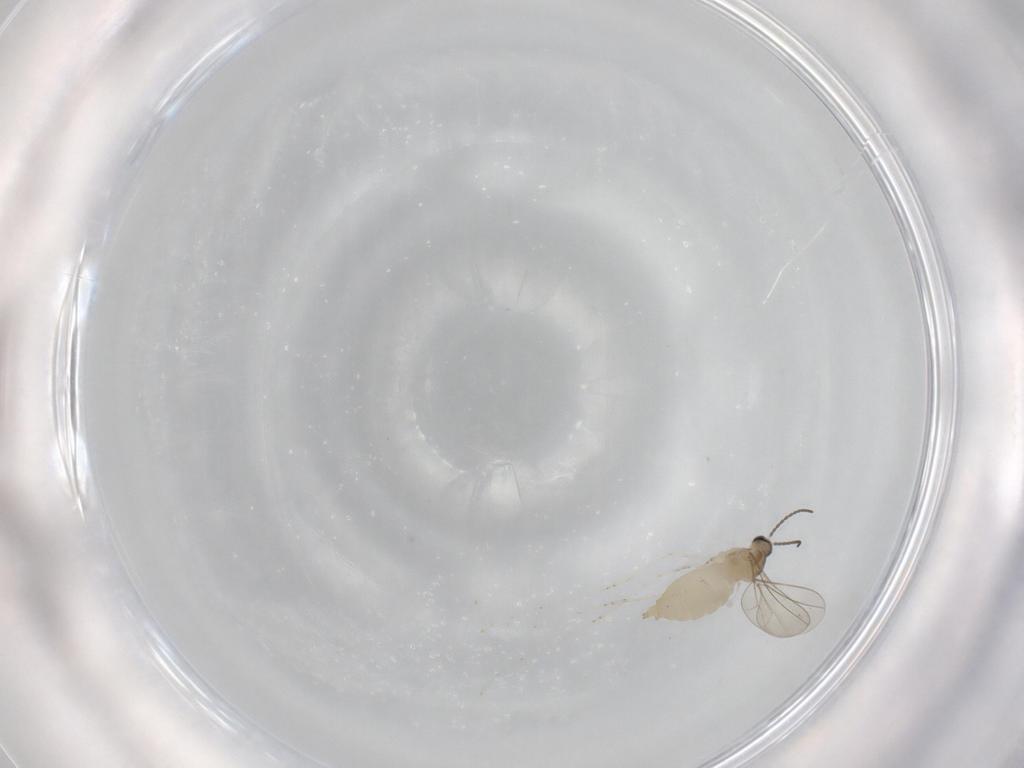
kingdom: Animalia
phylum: Arthropoda
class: Insecta
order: Diptera
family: Cecidomyiidae
